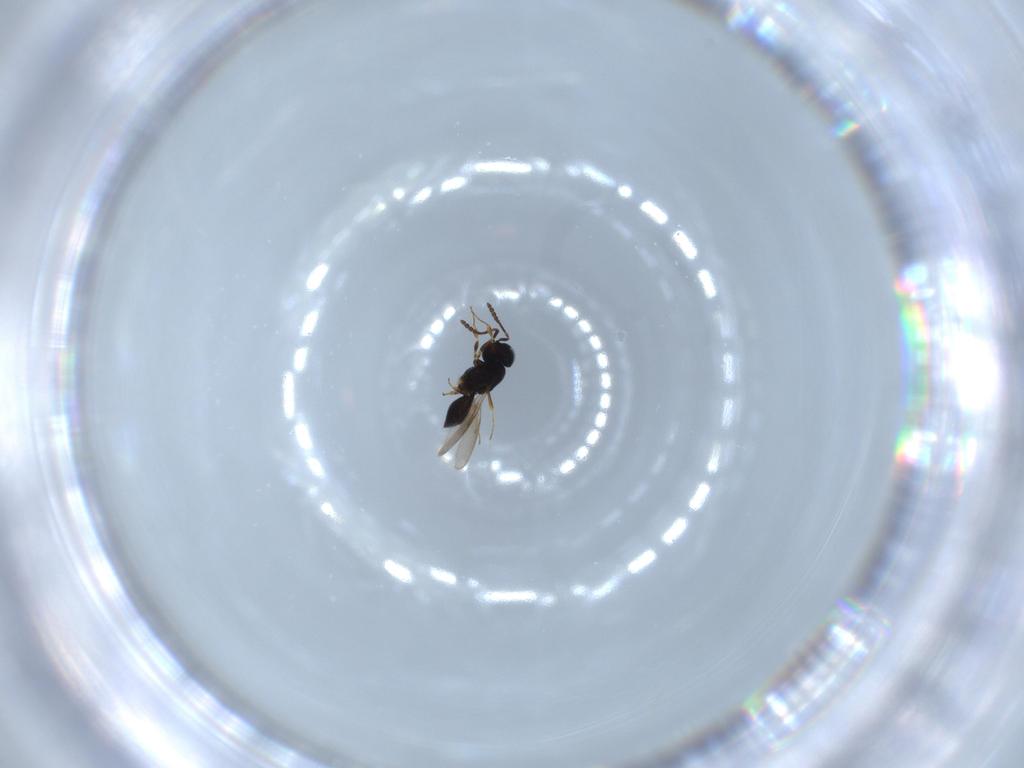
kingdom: Animalia
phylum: Arthropoda
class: Insecta
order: Hymenoptera
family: Scelionidae
